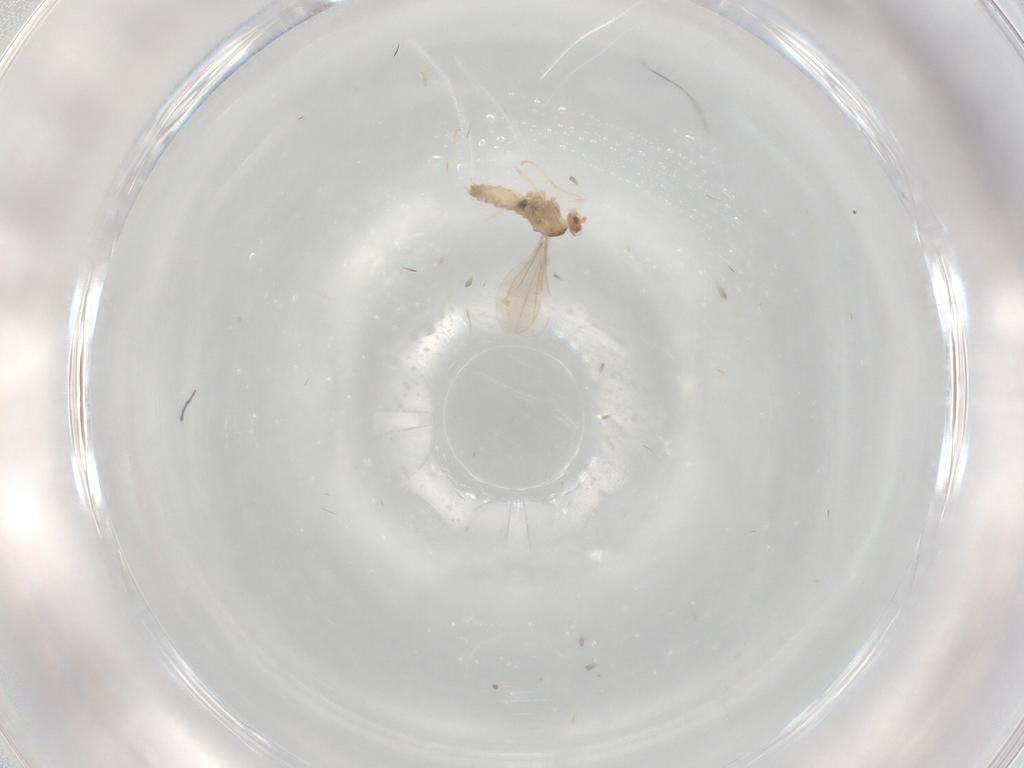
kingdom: Animalia
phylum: Arthropoda
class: Insecta
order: Diptera
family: Cecidomyiidae
